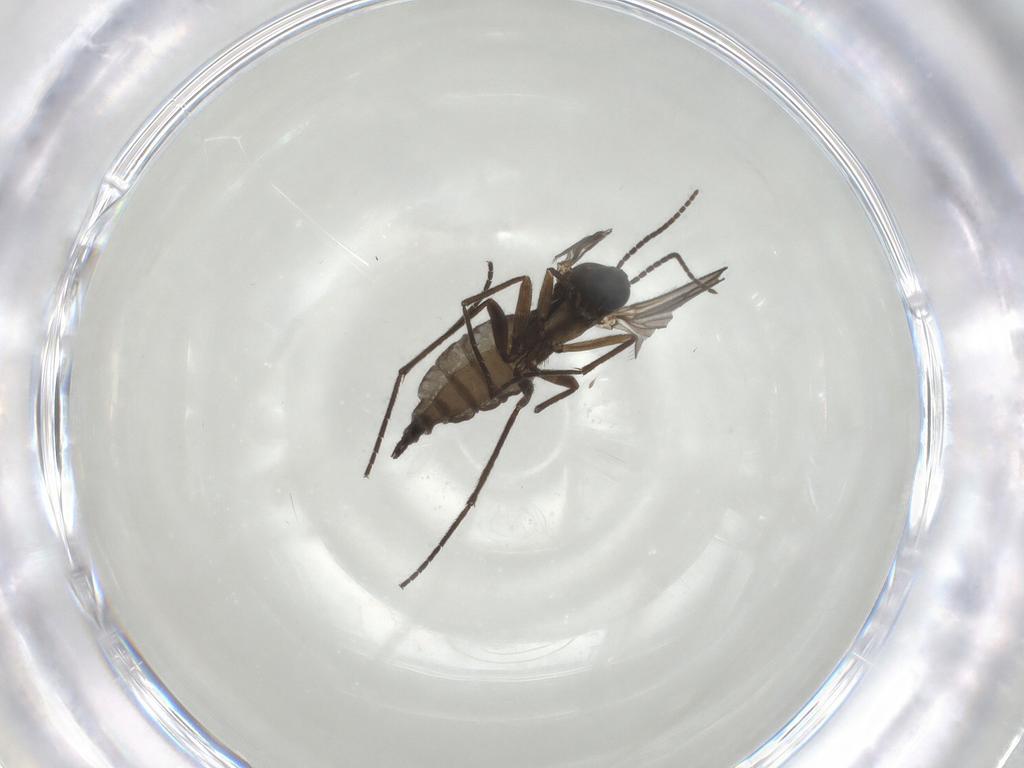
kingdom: Animalia
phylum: Arthropoda
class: Insecta
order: Diptera
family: Sciaridae
